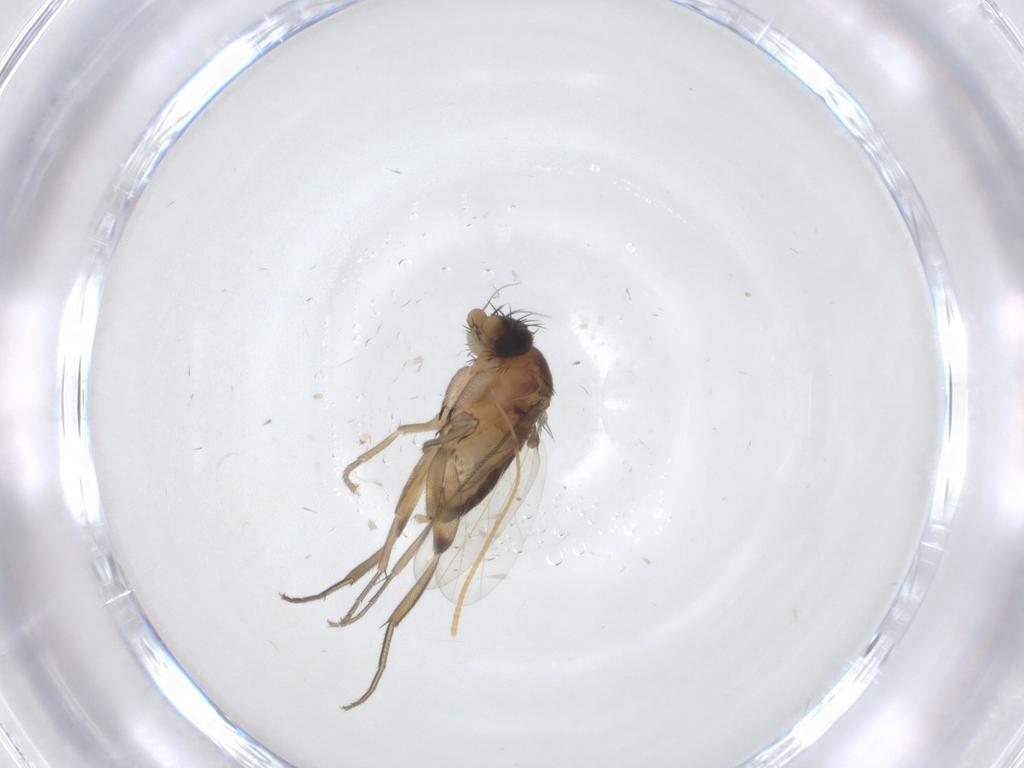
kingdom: Animalia
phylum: Arthropoda
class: Insecta
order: Diptera
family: Phoridae
